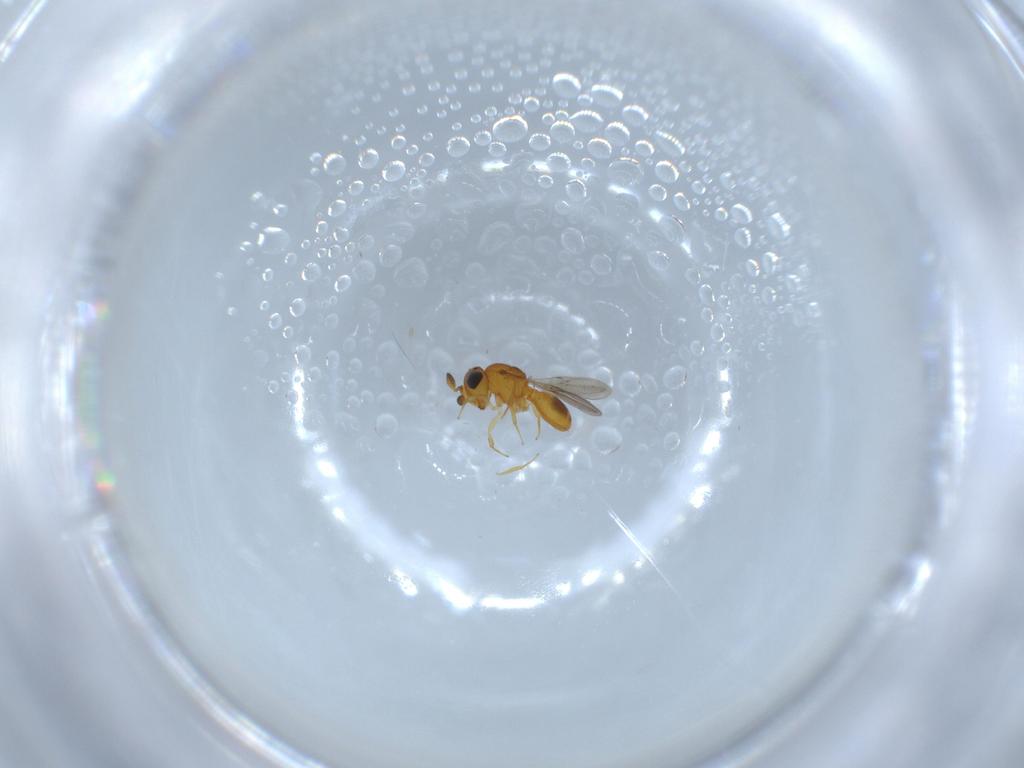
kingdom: Animalia
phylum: Arthropoda
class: Insecta
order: Hymenoptera
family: Scelionidae
